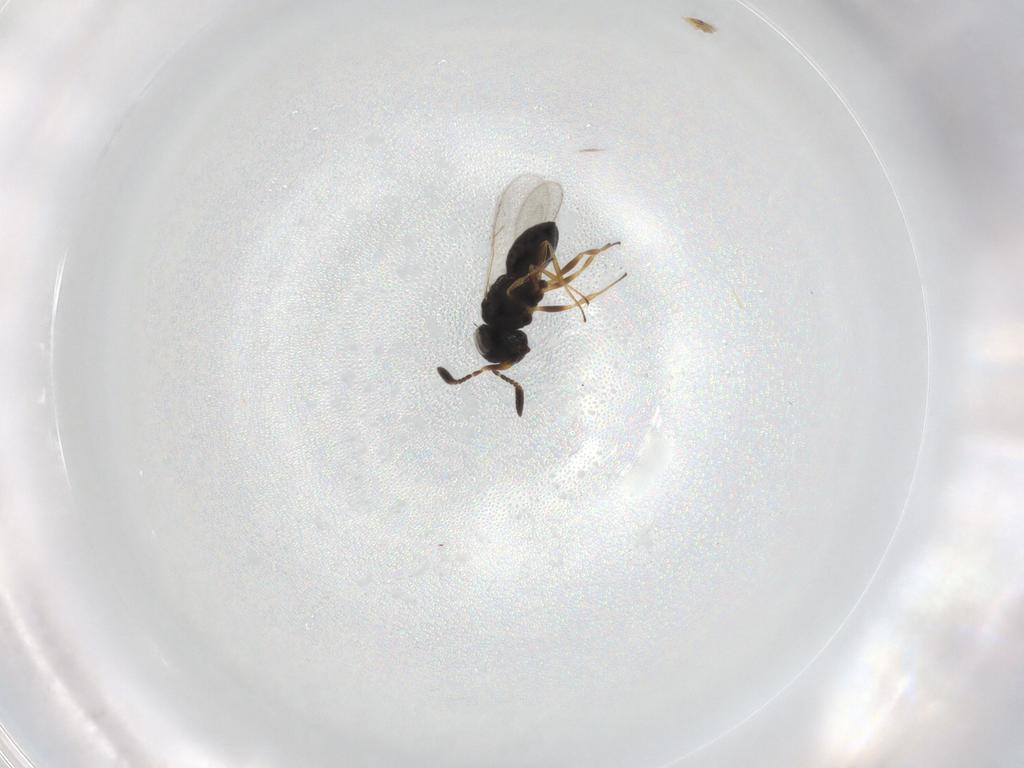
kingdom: Animalia
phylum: Arthropoda
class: Insecta
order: Hymenoptera
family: Scelionidae
